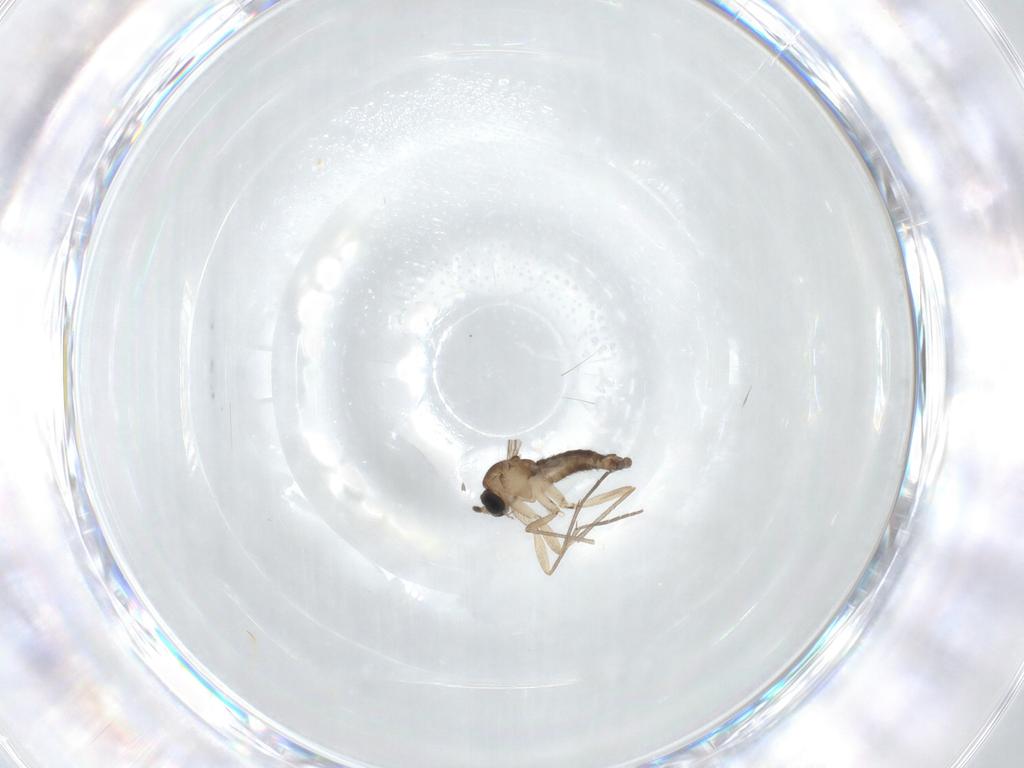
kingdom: Animalia
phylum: Arthropoda
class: Insecta
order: Diptera
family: Sciaridae
